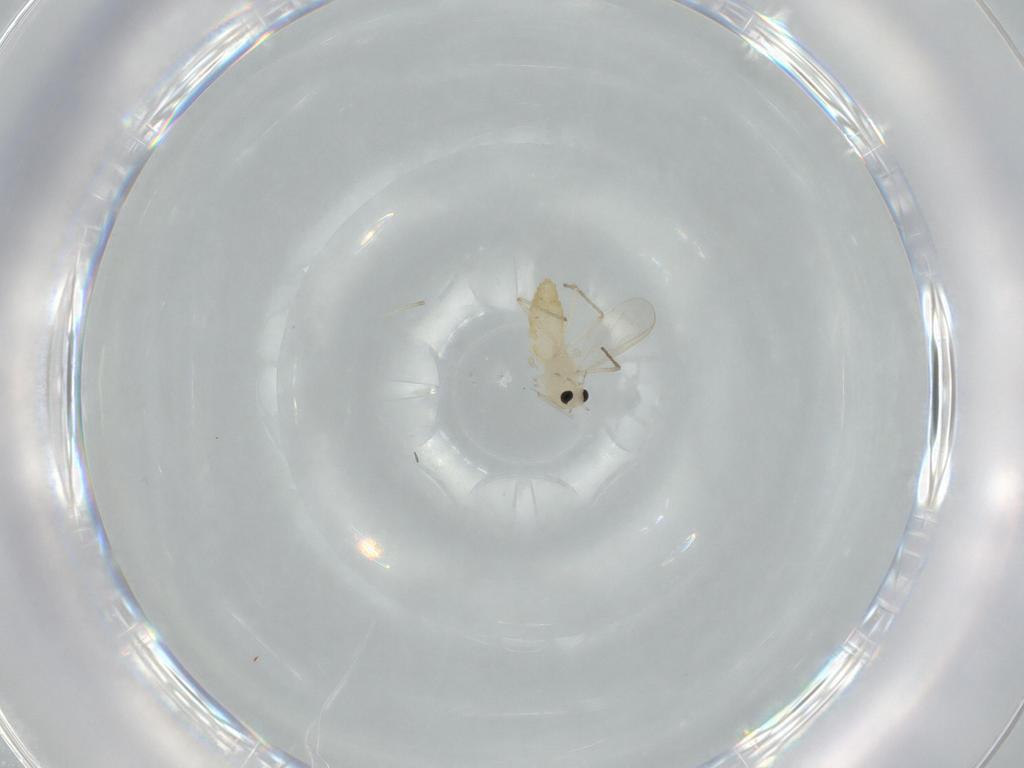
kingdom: Animalia
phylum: Arthropoda
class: Insecta
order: Diptera
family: Chironomidae
